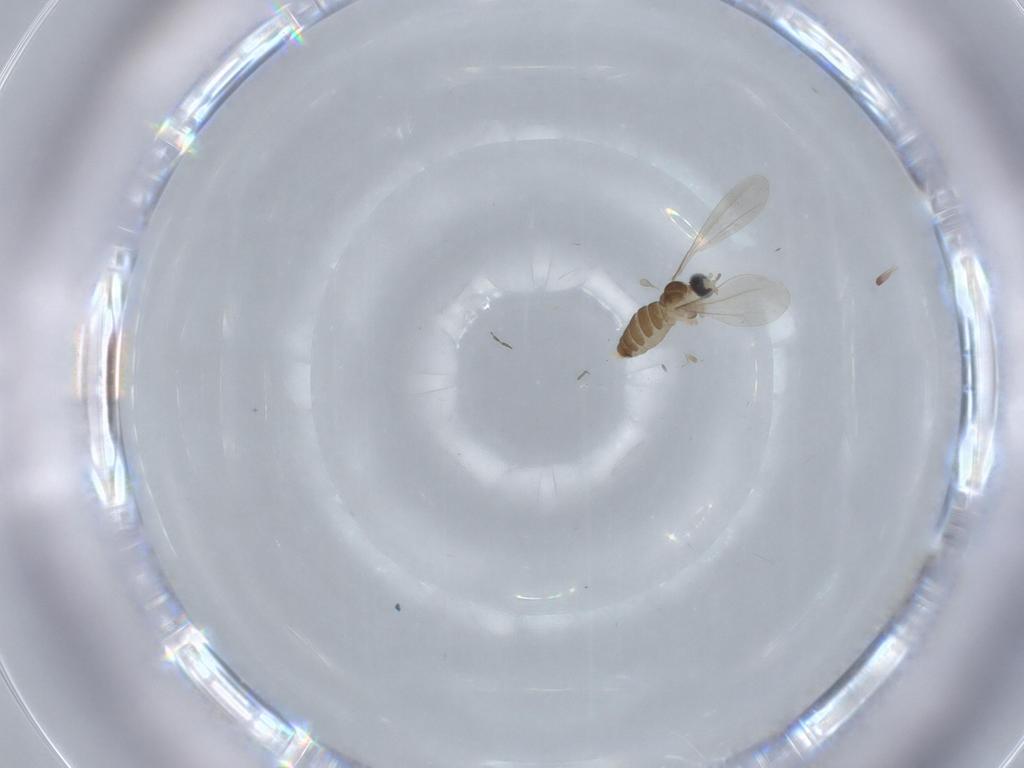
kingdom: Animalia
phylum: Arthropoda
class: Insecta
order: Diptera
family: Cecidomyiidae
